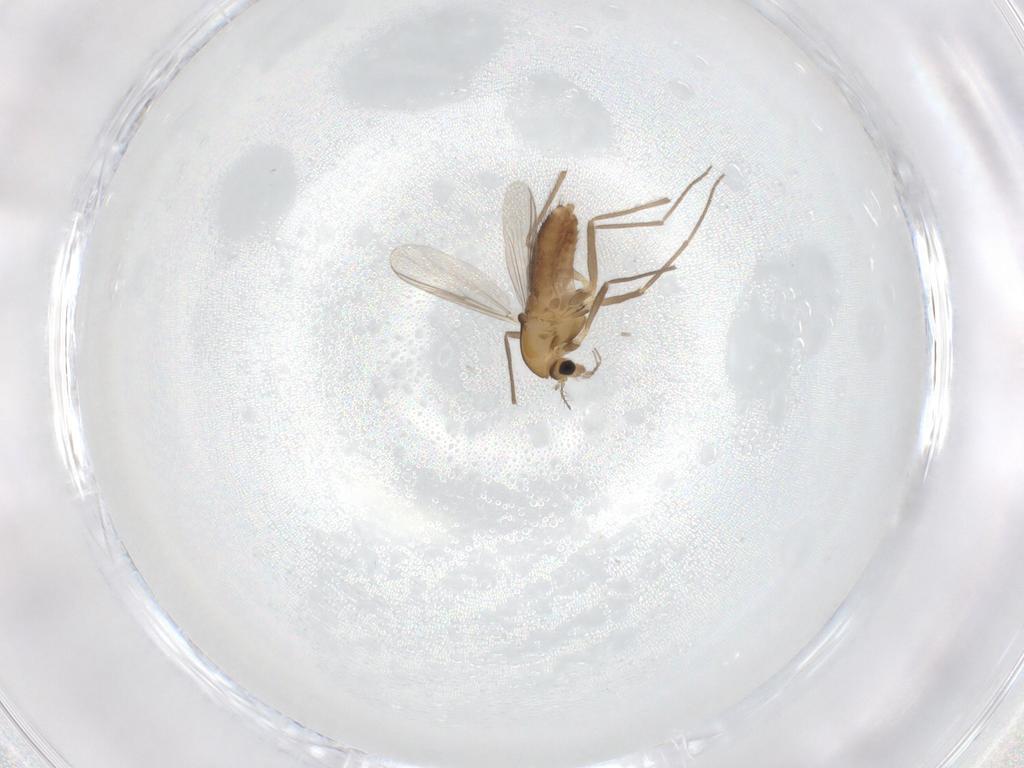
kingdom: Animalia
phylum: Arthropoda
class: Insecta
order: Diptera
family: Chironomidae
